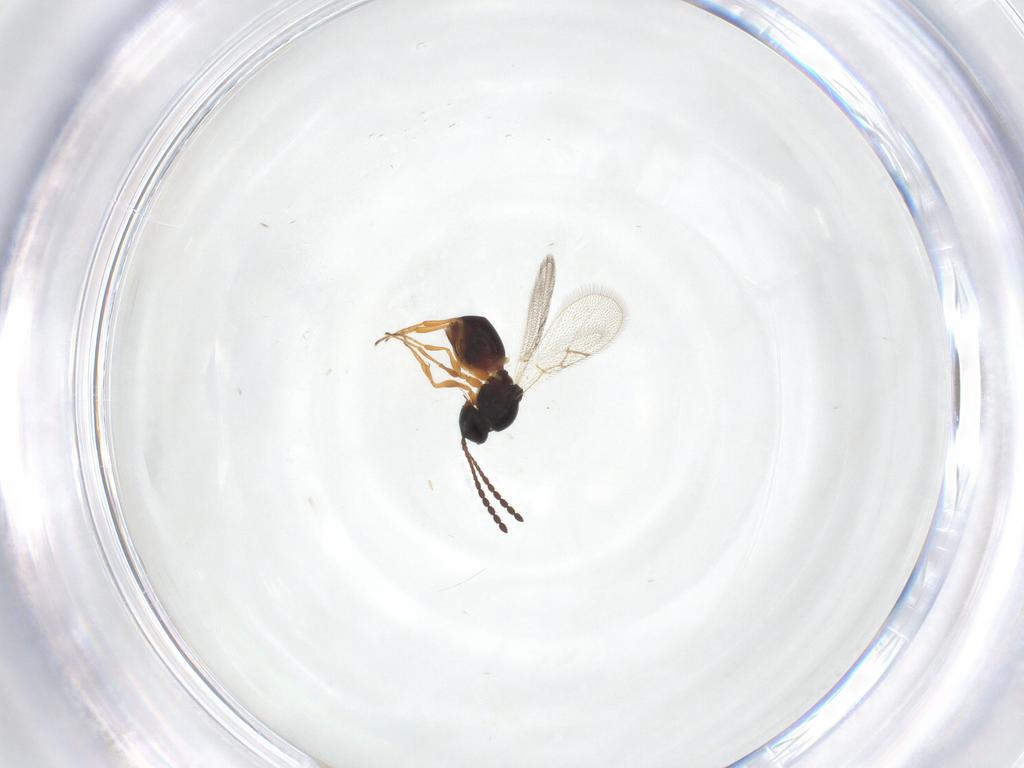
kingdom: Animalia
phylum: Arthropoda
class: Insecta
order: Hymenoptera
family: Figitidae
